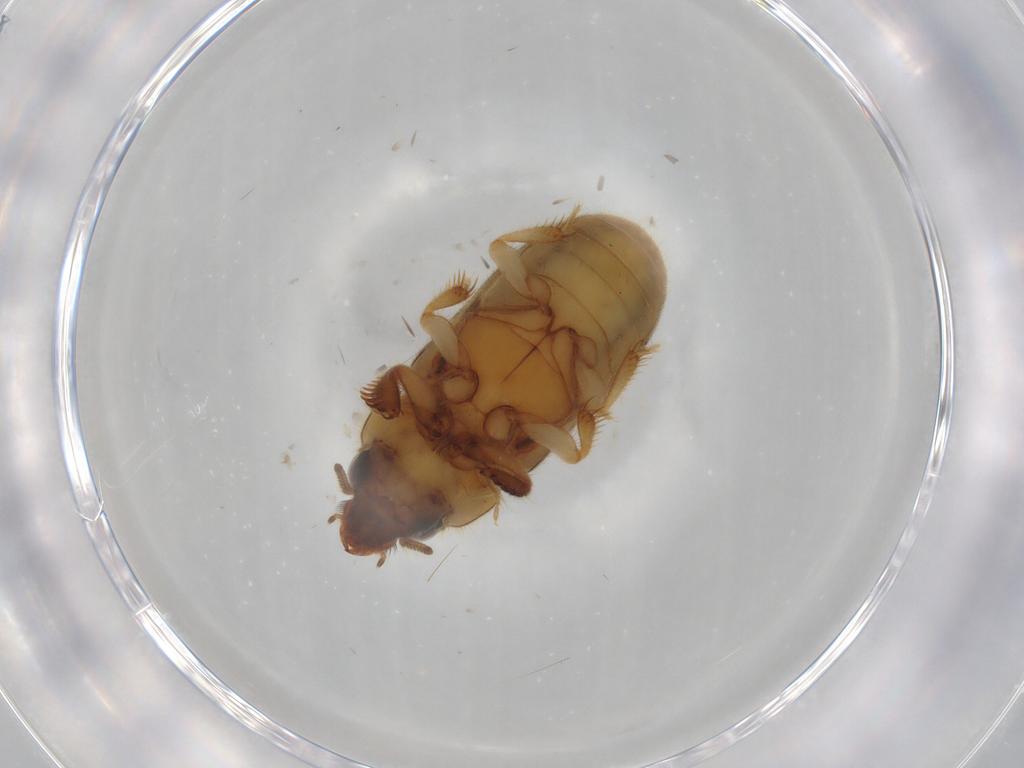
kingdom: Animalia
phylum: Arthropoda
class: Insecta
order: Coleoptera
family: Heteroceridae
